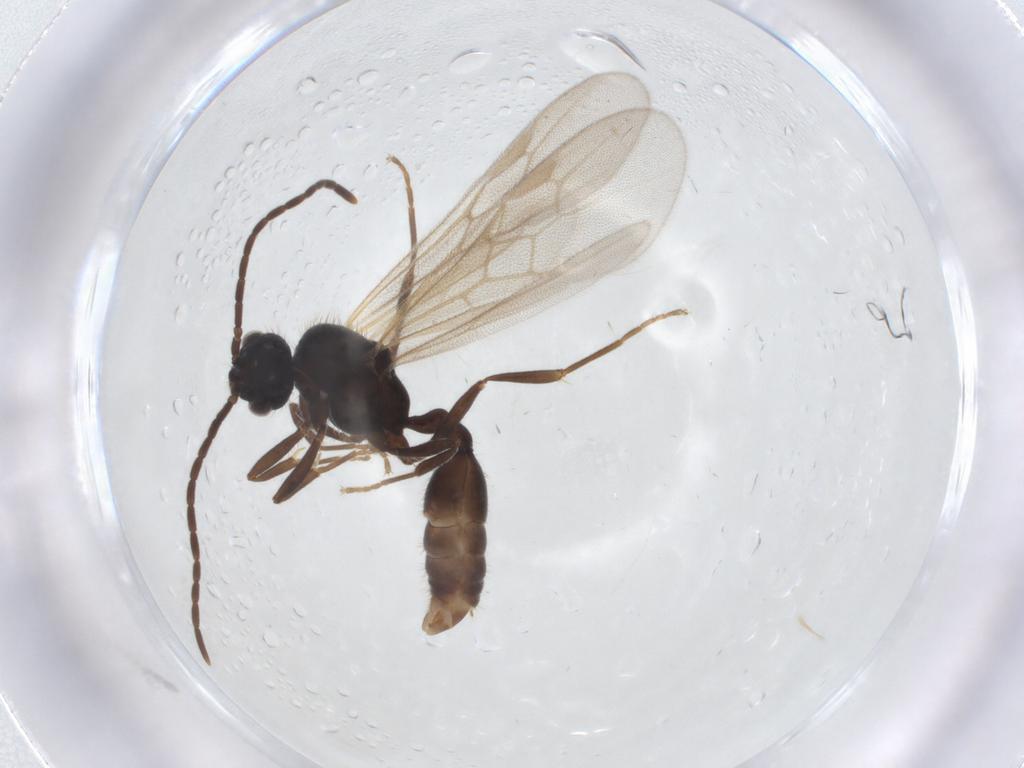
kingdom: Animalia
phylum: Arthropoda
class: Insecta
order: Hymenoptera
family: Formicidae
